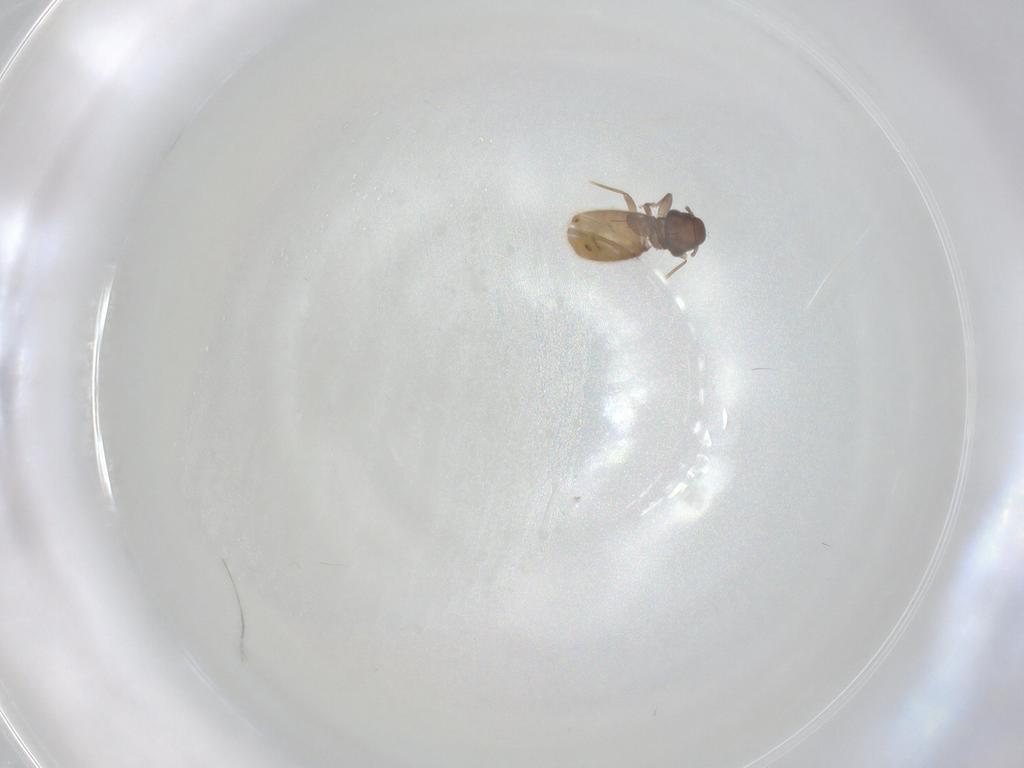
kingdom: Animalia
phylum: Arthropoda
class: Insecta
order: Psocodea
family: Trogiidae
